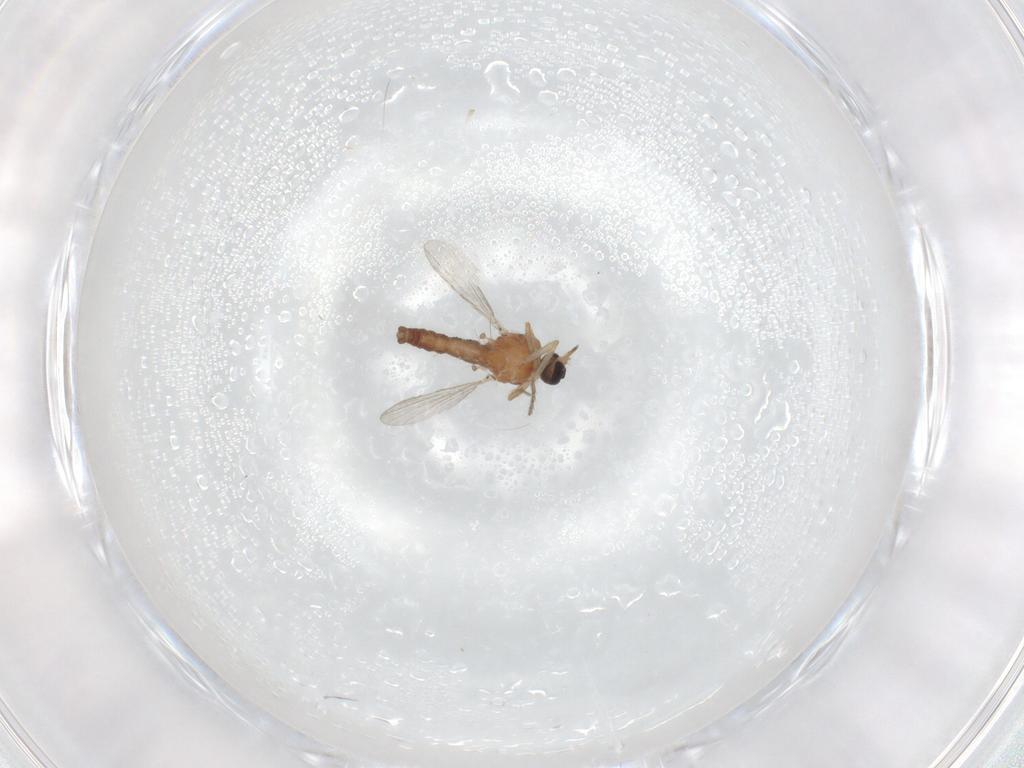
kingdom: Animalia
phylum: Arthropoda
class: Insecta
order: Diptera
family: Ceratopogonidae
